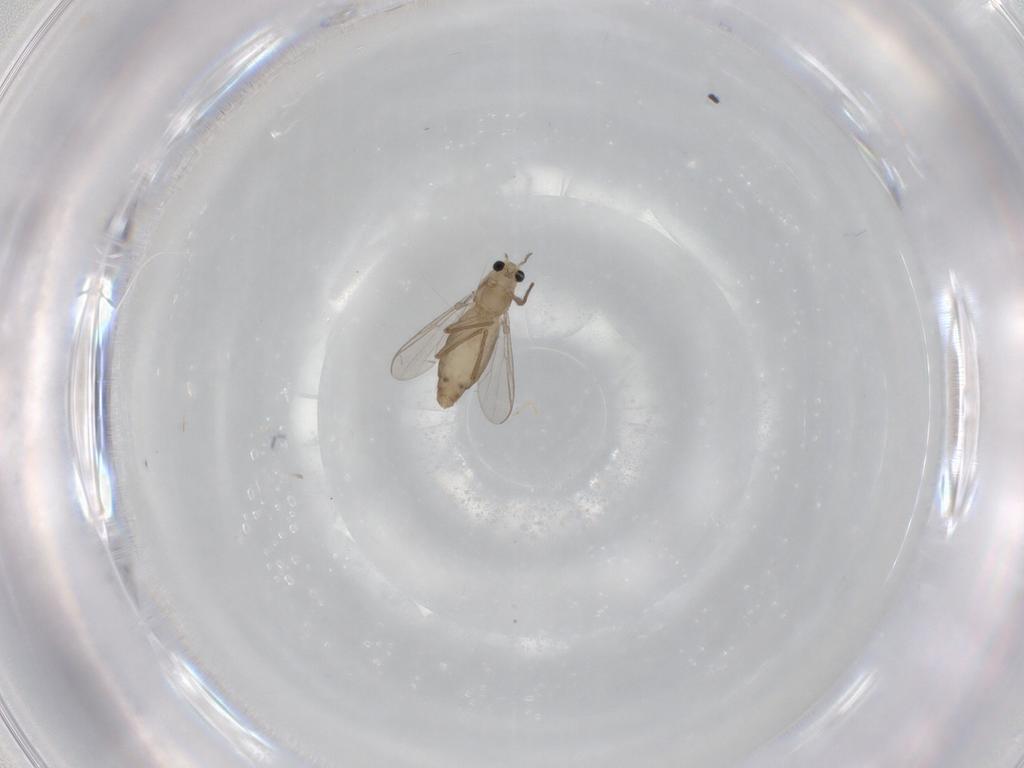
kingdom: Animalia
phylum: Arthropoda
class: Insecta
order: Diptera
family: Chironomidae
